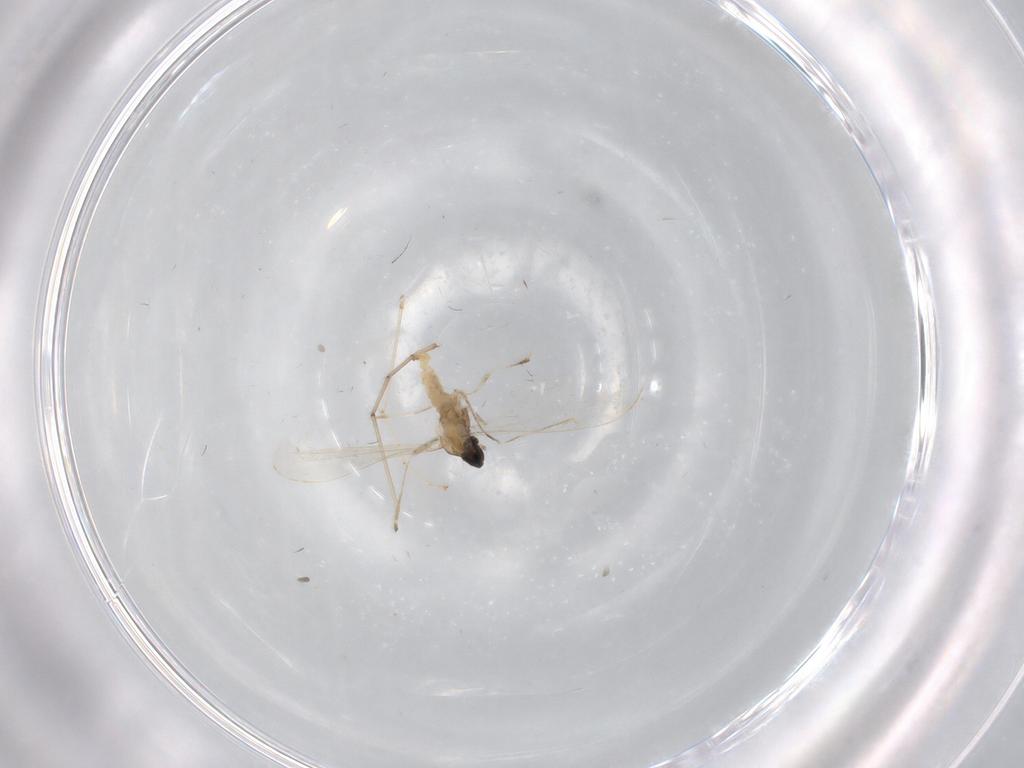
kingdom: Animalia
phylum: Arthropoda
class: Insecta
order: Diptera
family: Cecidomyiidae
